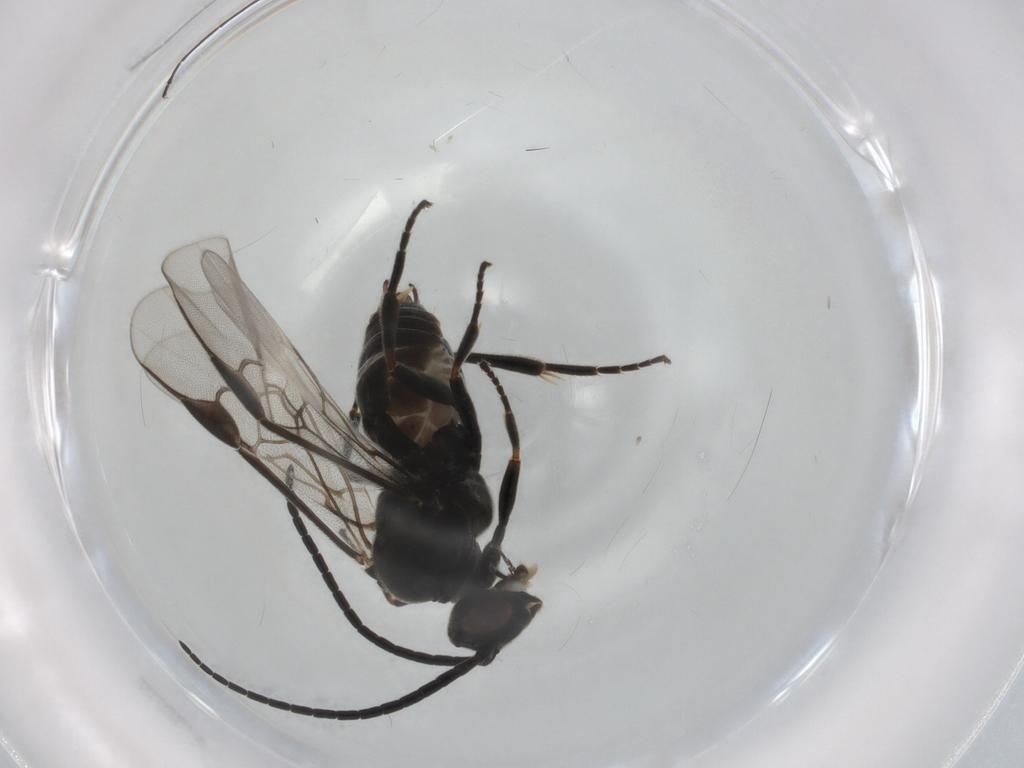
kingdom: Animalia
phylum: Arthropoda
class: Insecta
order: Hymenoptera
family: Braconidae
